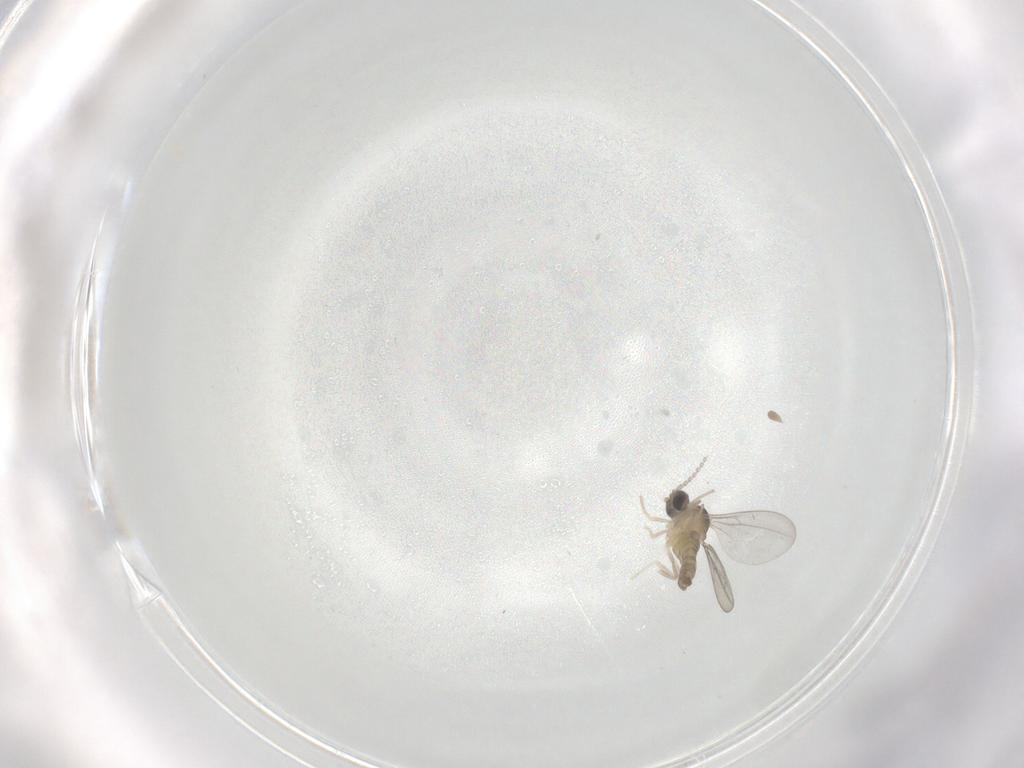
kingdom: Animalia
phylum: Arthropoda
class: Insecta
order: Diptera
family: Cecidomyiidae
